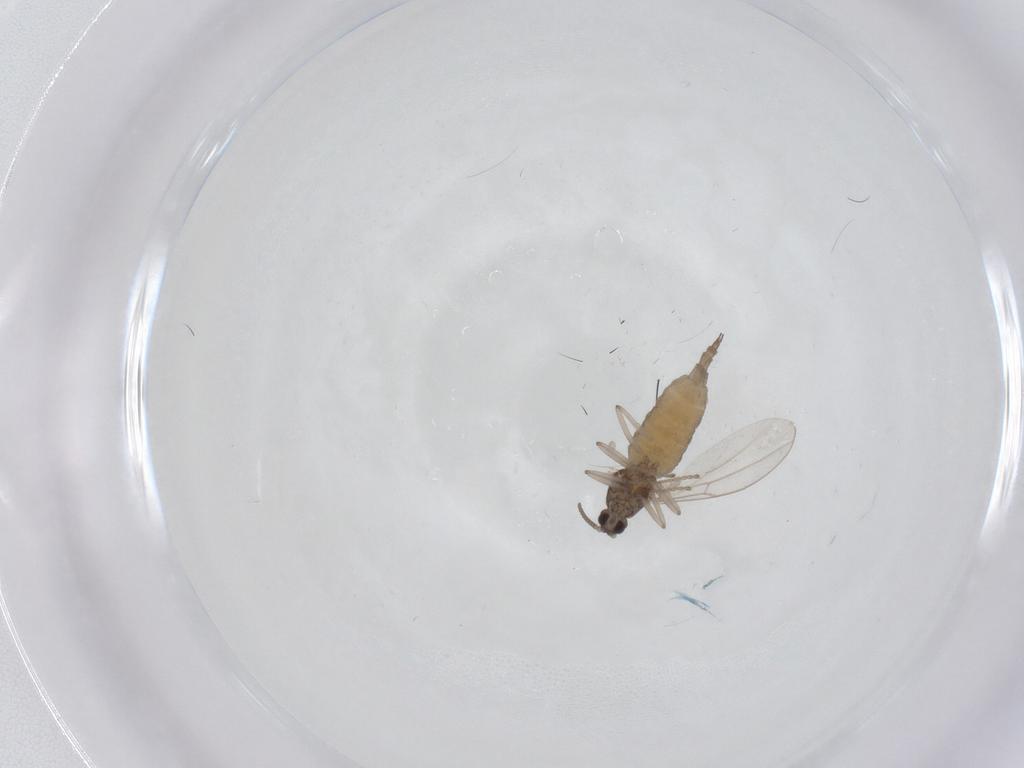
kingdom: Animalia
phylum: Arthropoda
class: Insecta
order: Diptera
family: Cecidomyiidae
